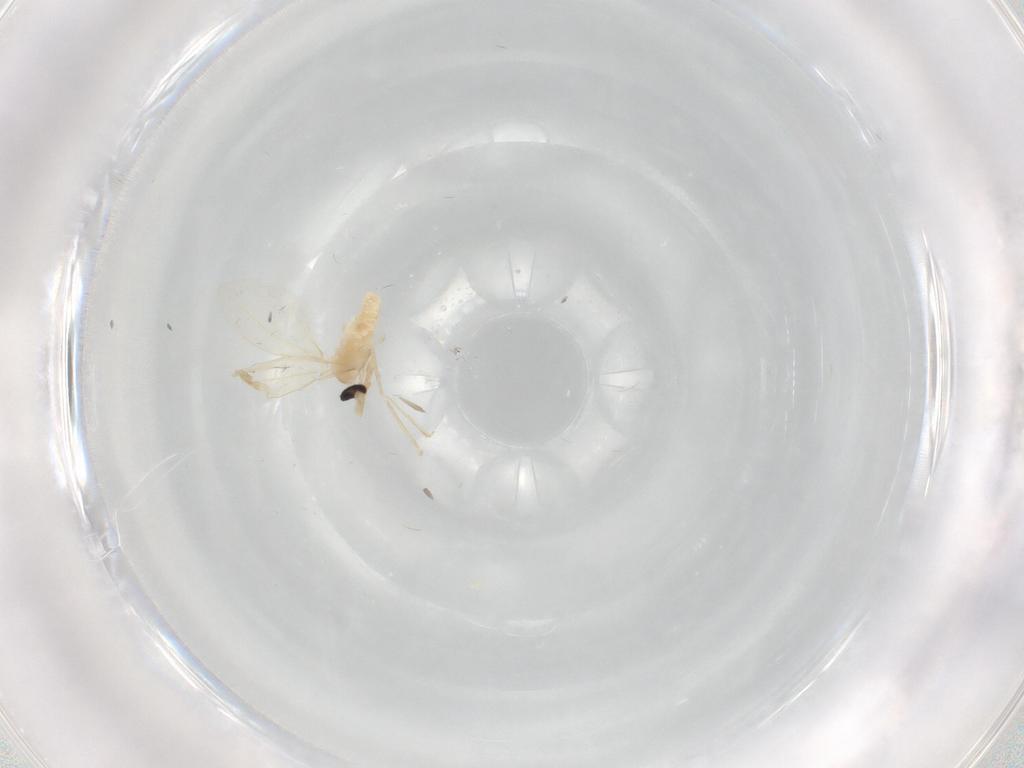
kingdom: Animalia
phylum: Arthropoda
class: Insecta
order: Diptera
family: Cecidomyiidae
